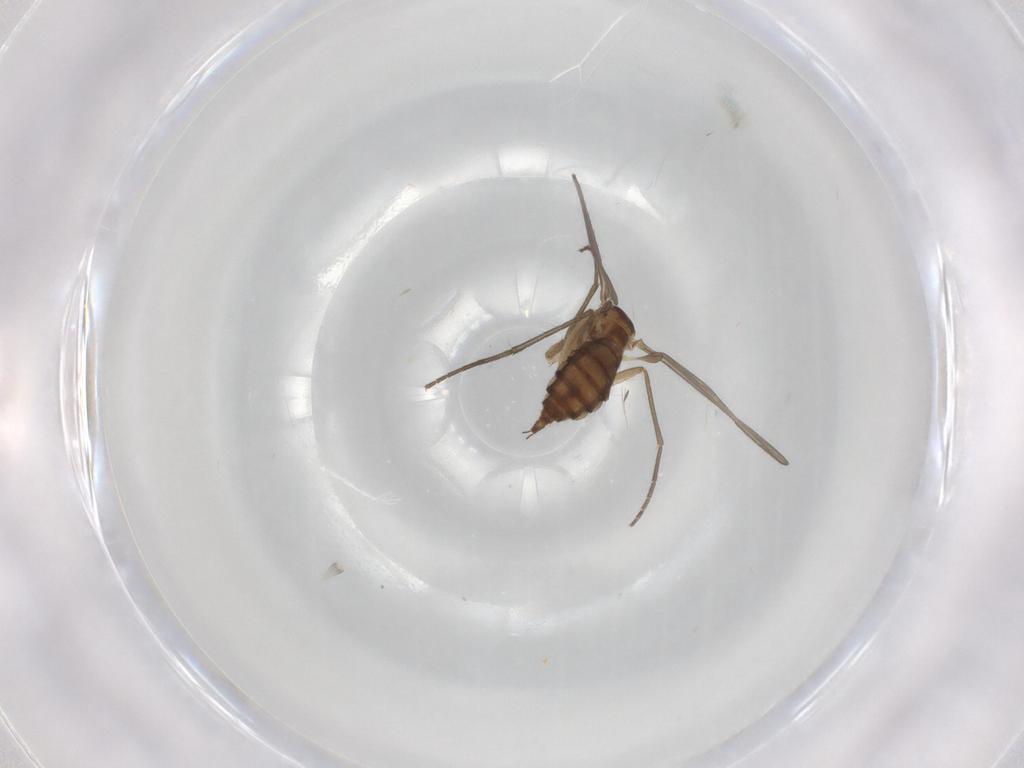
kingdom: Animalia
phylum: Arthropoda
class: Insecta
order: Diptera
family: Sciaridae
